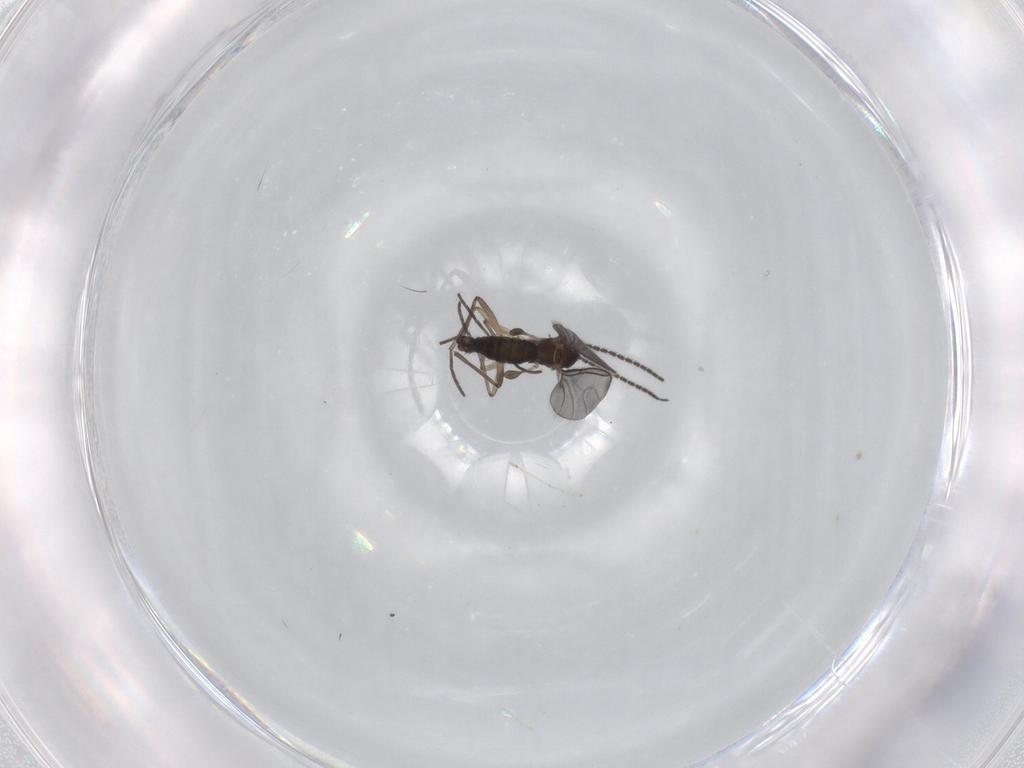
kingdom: Animalia
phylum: Arthropoda
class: Insecta
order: Diptera
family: Sciaridae
